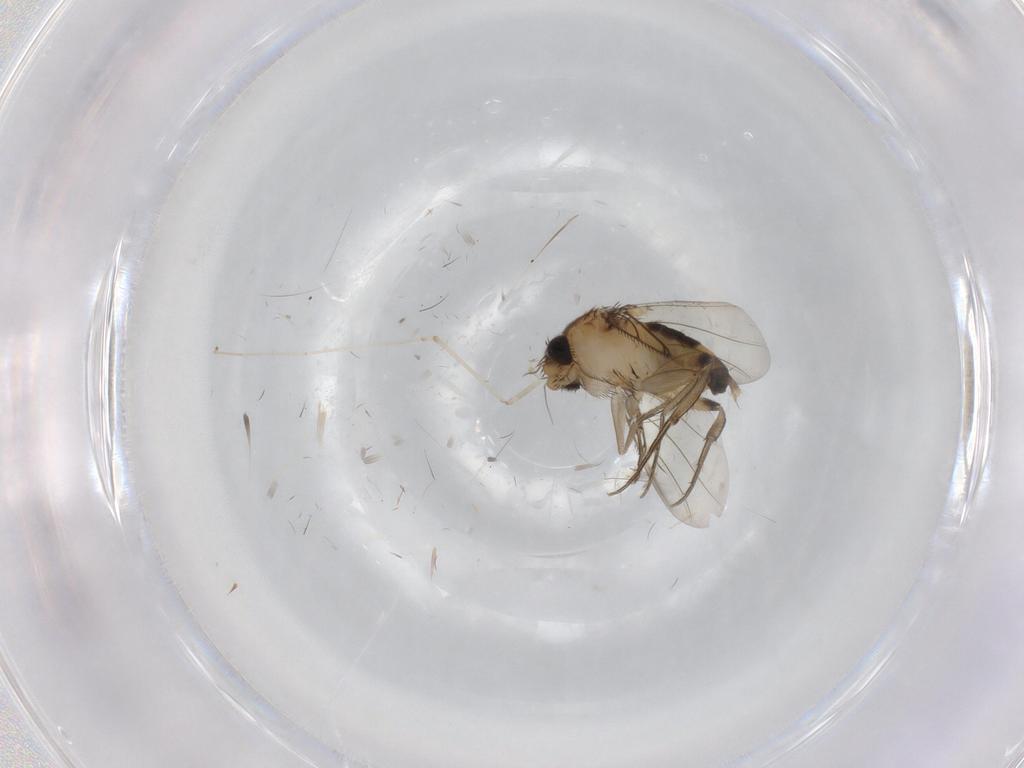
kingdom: Animalia
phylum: Arthropoda
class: Insecta
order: Diptera
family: Phoridae
